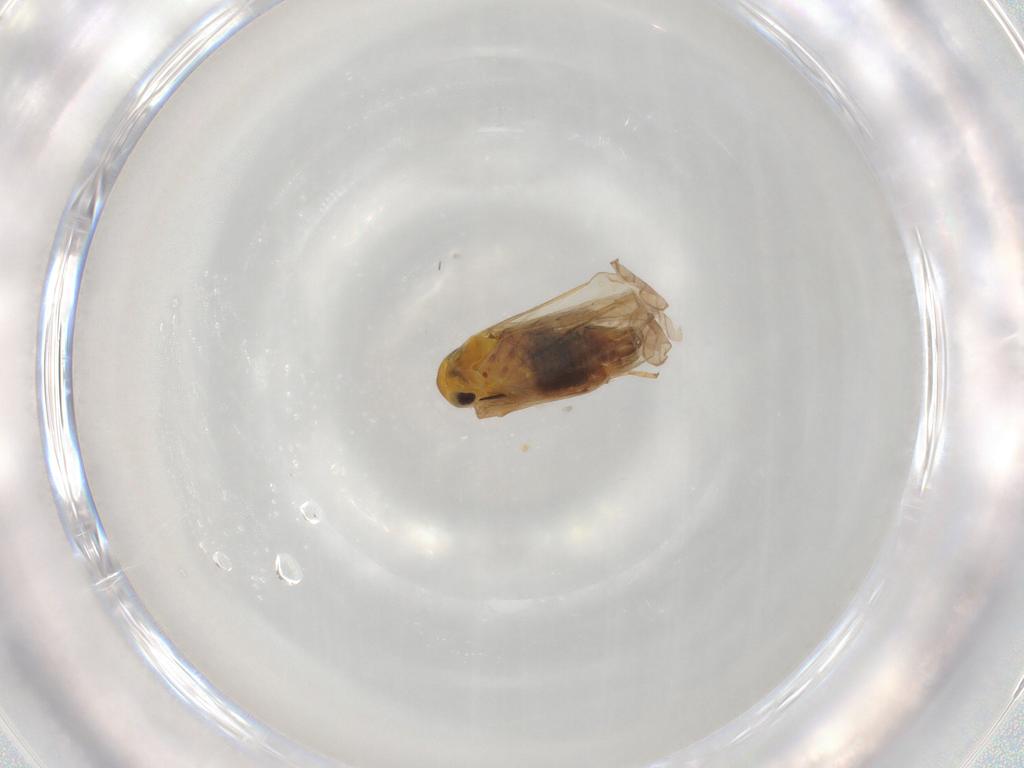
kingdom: Animalia
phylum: Arthropoda
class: Insecta
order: Hemiptera
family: Cicadellidae
